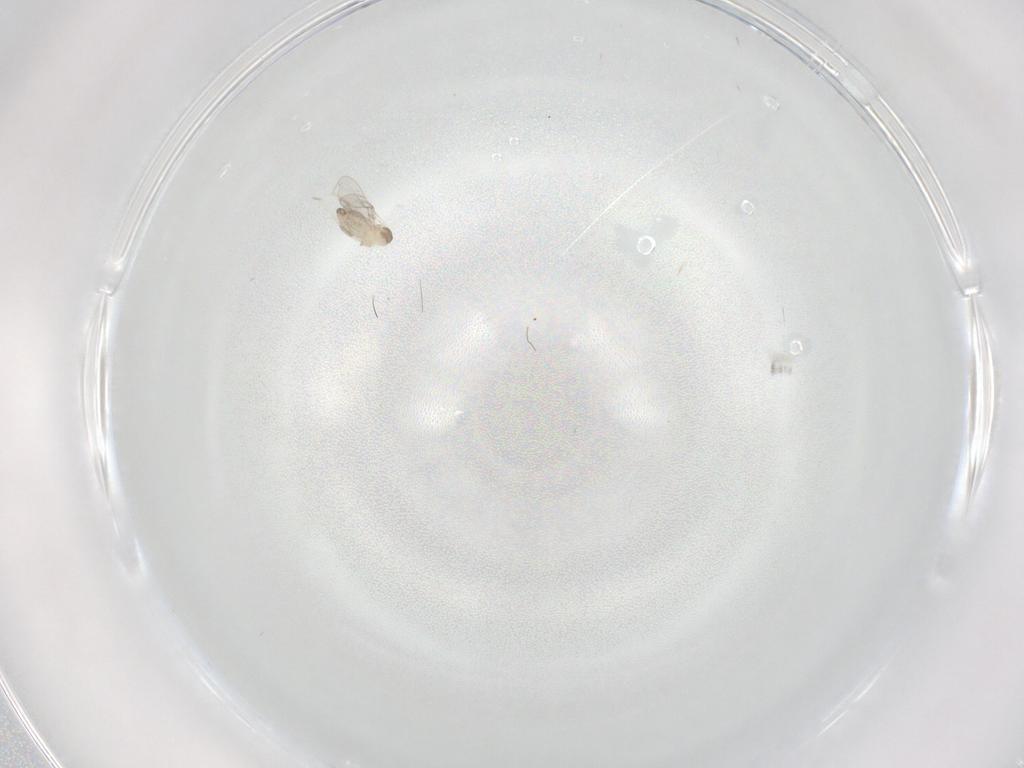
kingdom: Animalia
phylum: Arthropoda
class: Insecta
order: Diptera
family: Cecidomyiidae
